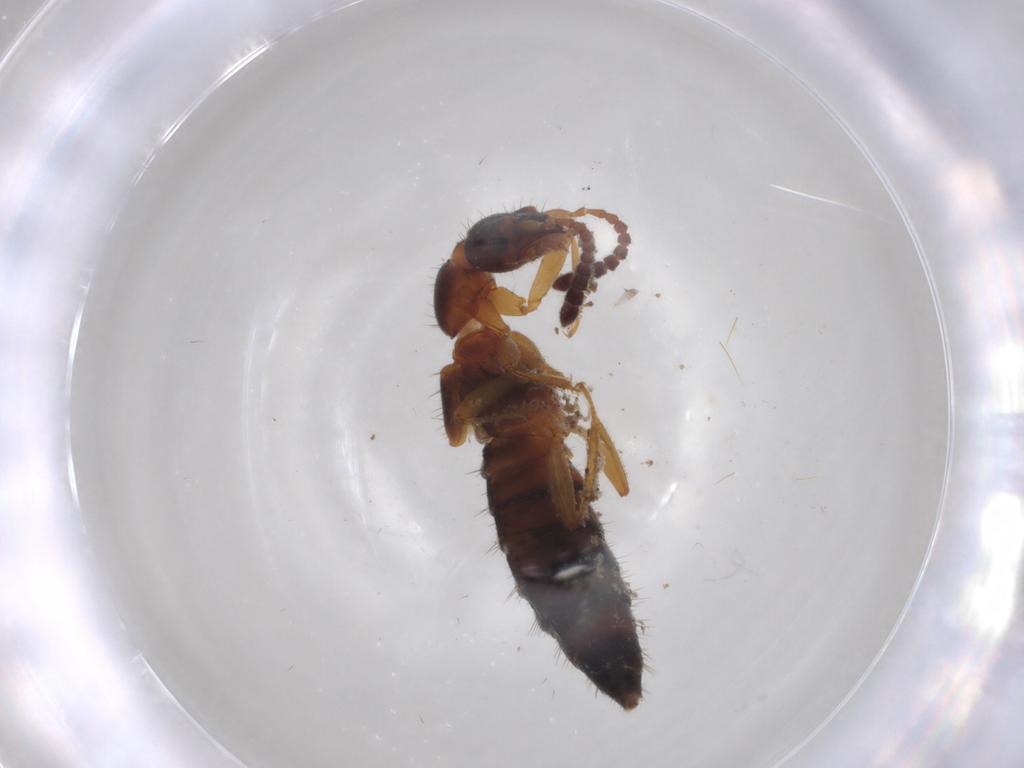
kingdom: Animalia
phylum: Arthropoda
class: Insecta
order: Coleoptera
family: Staphylinidae
